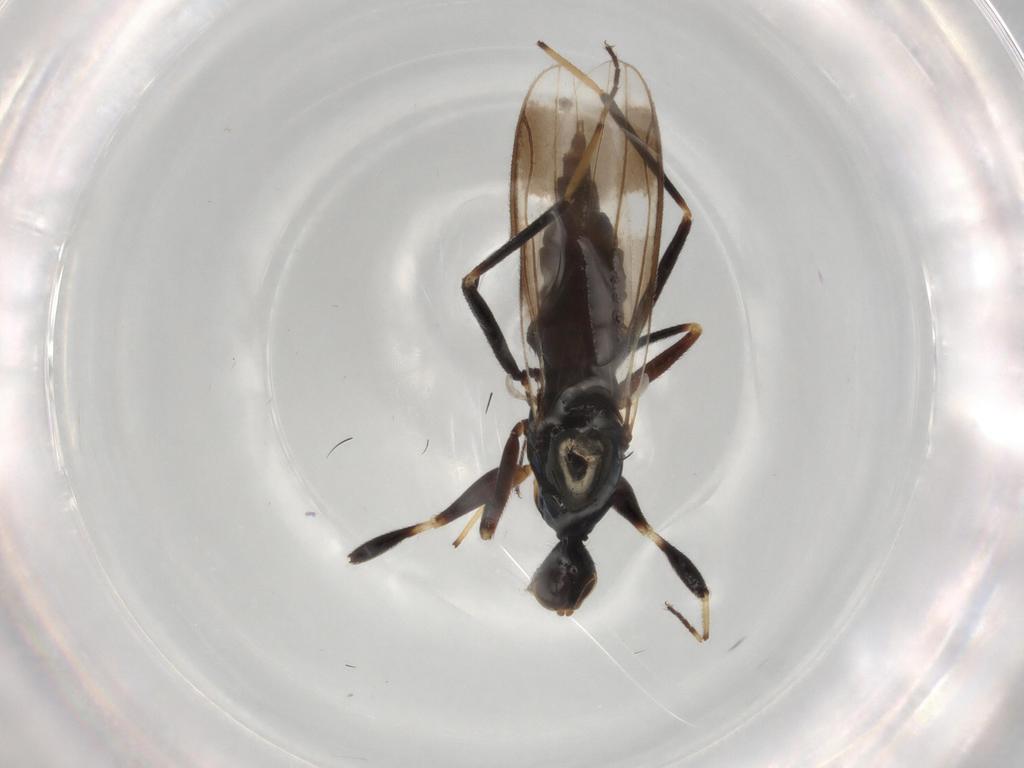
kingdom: Animalia
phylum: Arthropoda
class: Insecta
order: Diptera
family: Hybotidae
